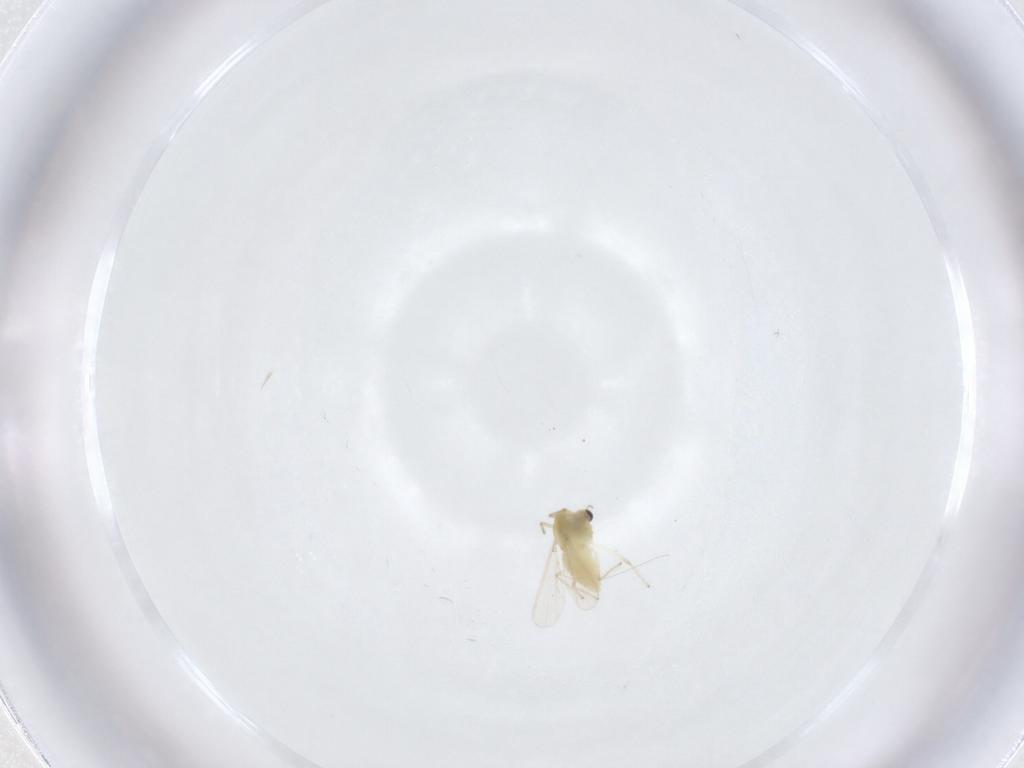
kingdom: Animalia
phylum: Arthropoda
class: Insecta
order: Diptera
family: Chironomidae
